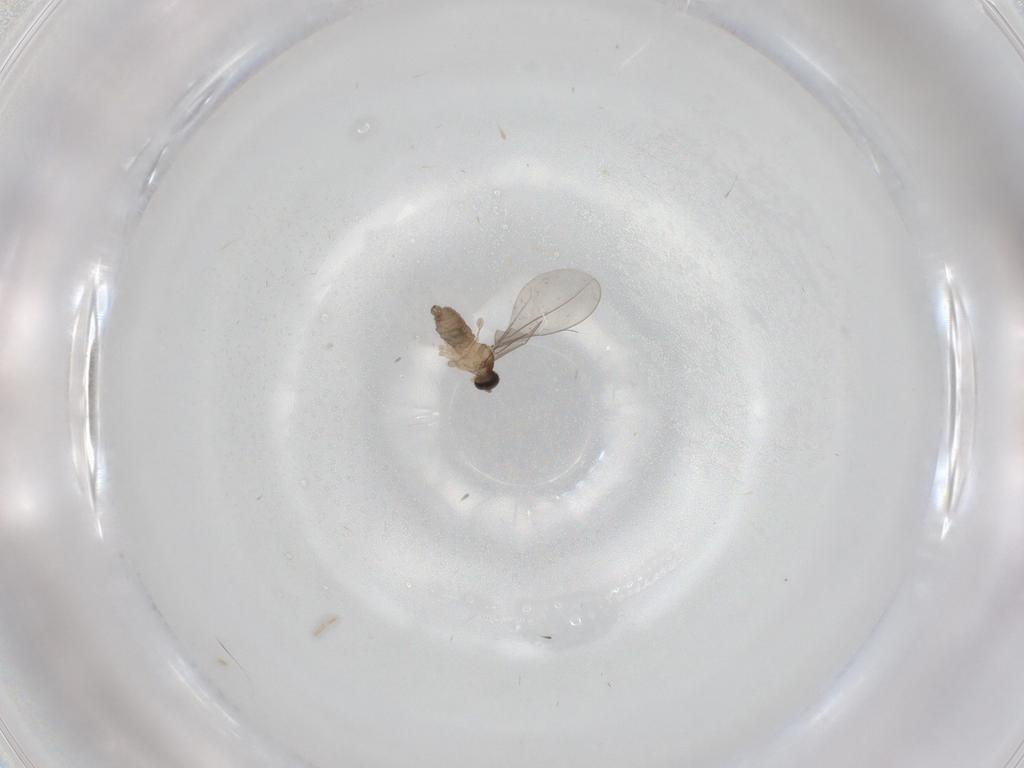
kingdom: Animalia
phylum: Arthropoda
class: Insecta
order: Diptera
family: Cecidomyiidae
